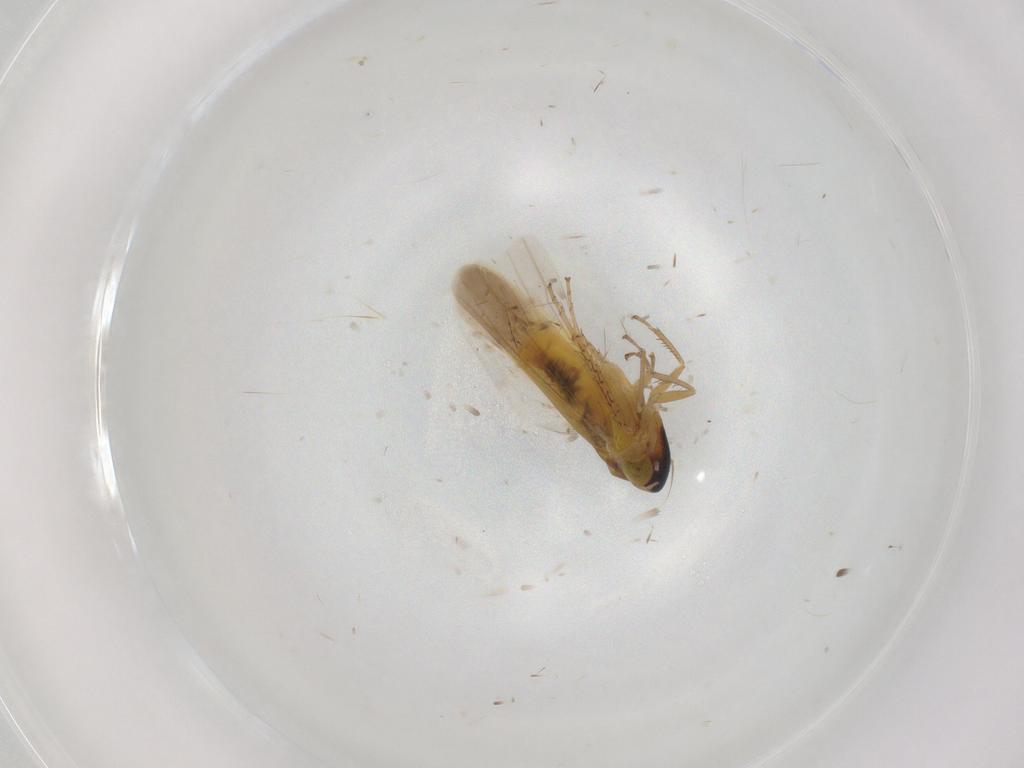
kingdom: Animalia
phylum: Arthropoda
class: Insecta
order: Hemiptera
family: Cicadellidae
